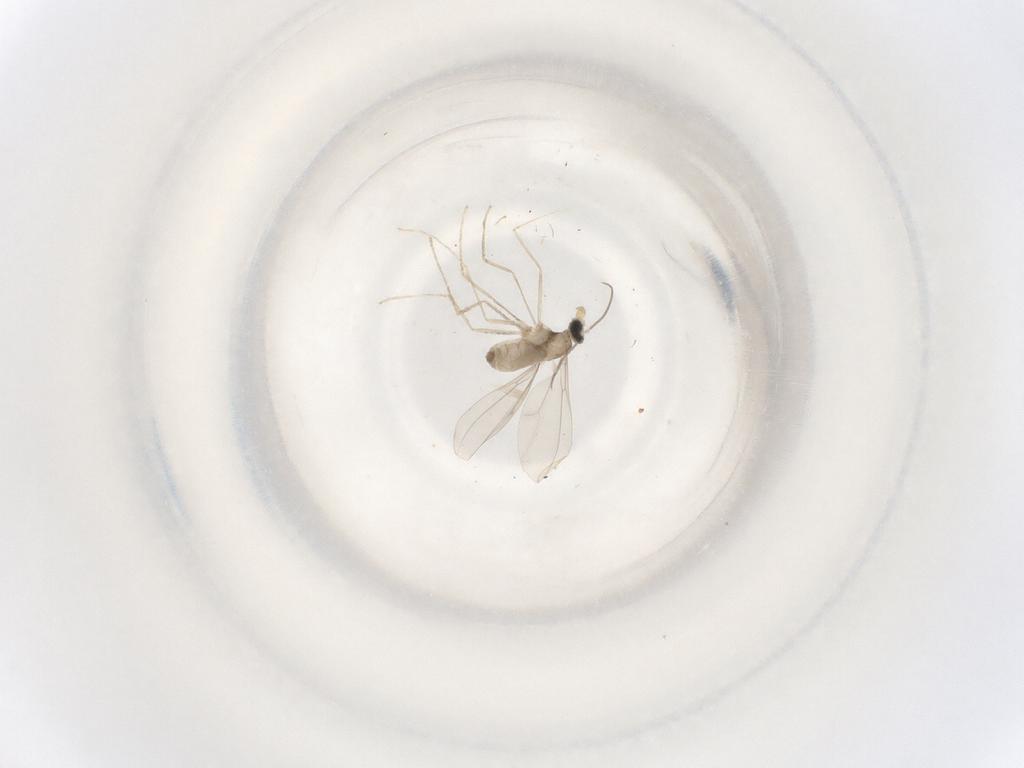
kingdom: Animalia
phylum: Arthropoda
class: Insecta
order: Diptera
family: Cecidomyiidae
